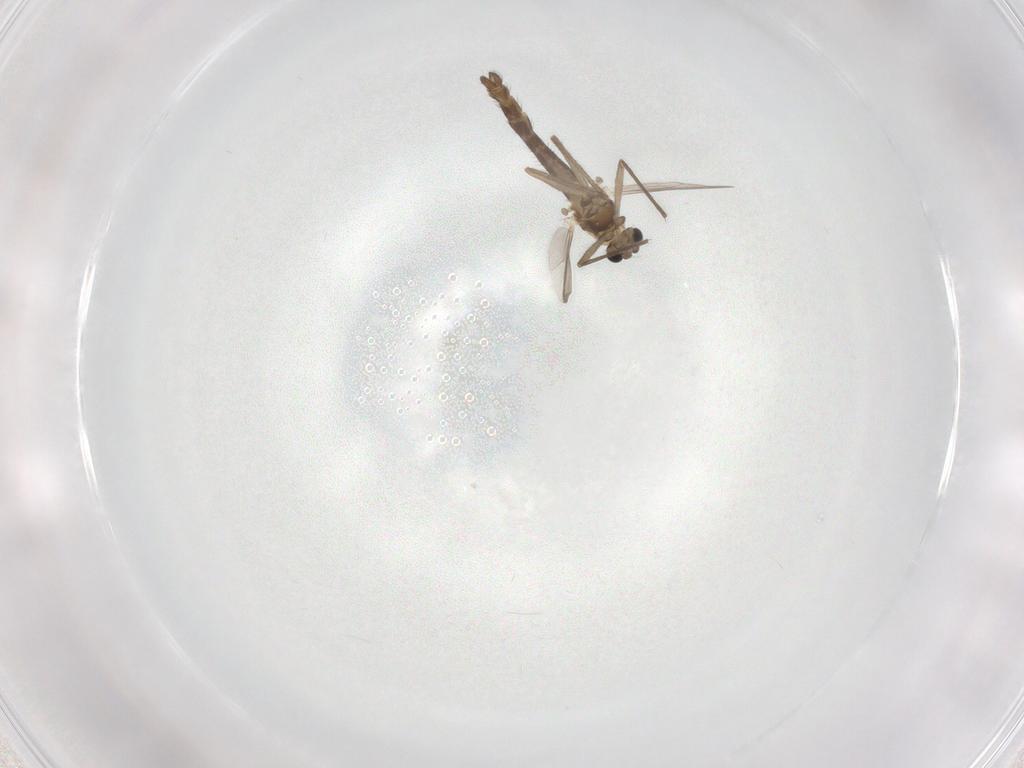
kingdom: Animalia
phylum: Arthropoda
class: Insecta
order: Diptera
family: Chironomidae
